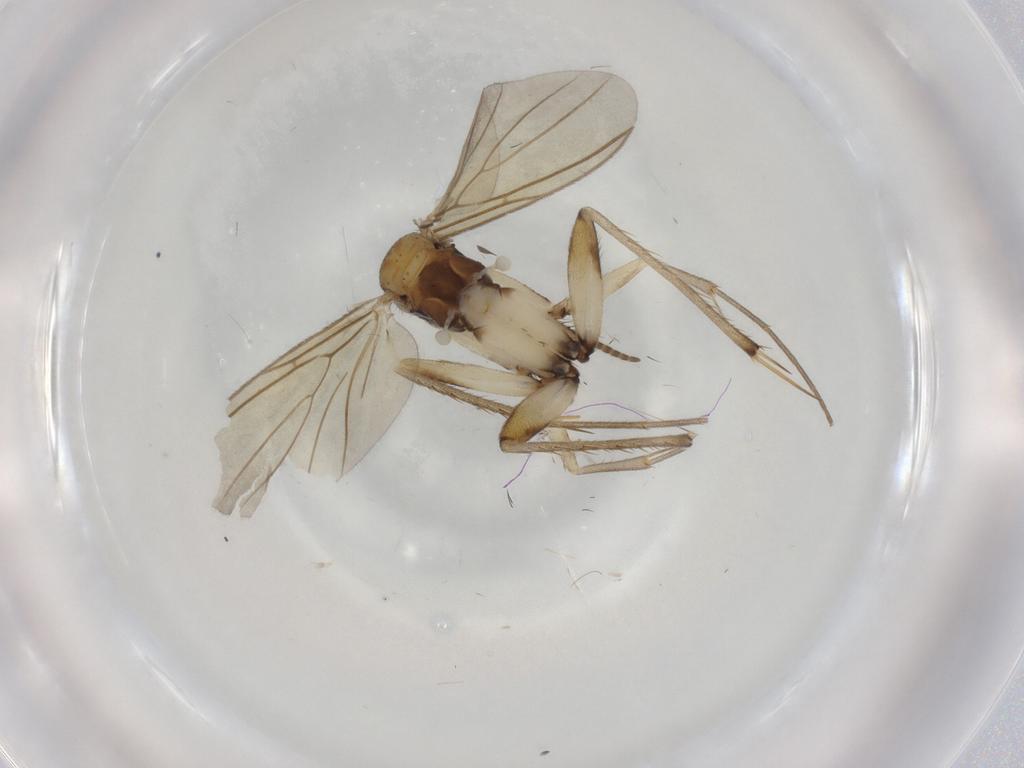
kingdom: Animalia
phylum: Arthropoda
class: Insecta
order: Diptera
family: Mycetophilidae
